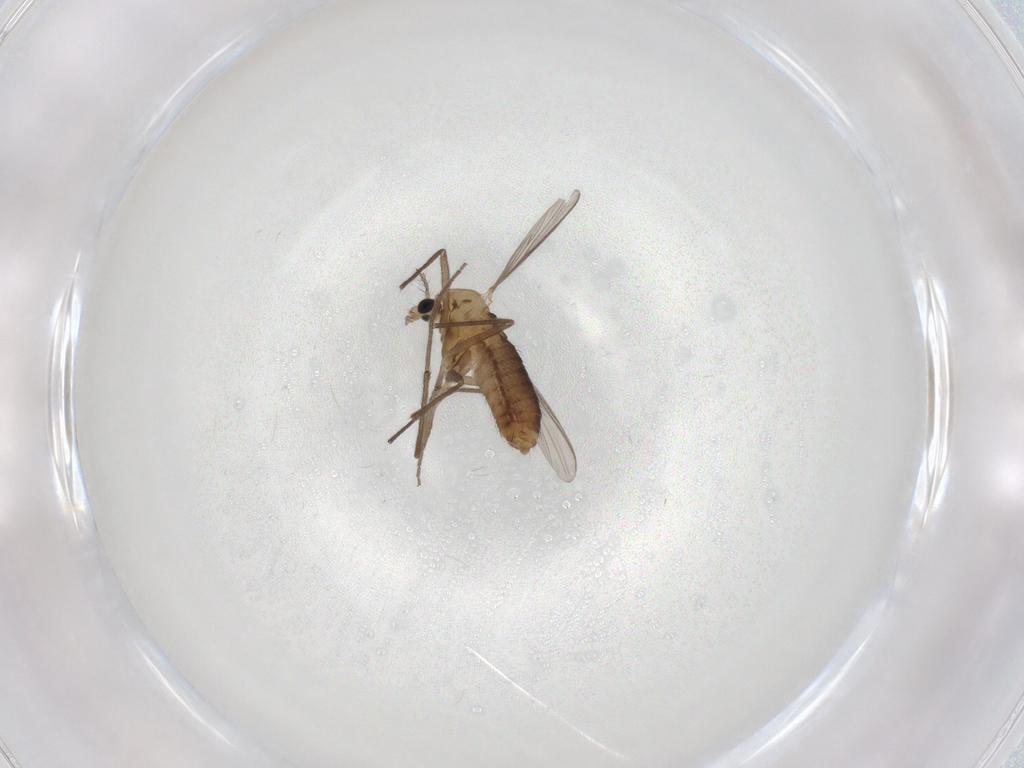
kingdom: Animalia
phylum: Arthropoda
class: Insecta
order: Diptera
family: Chironomidae
